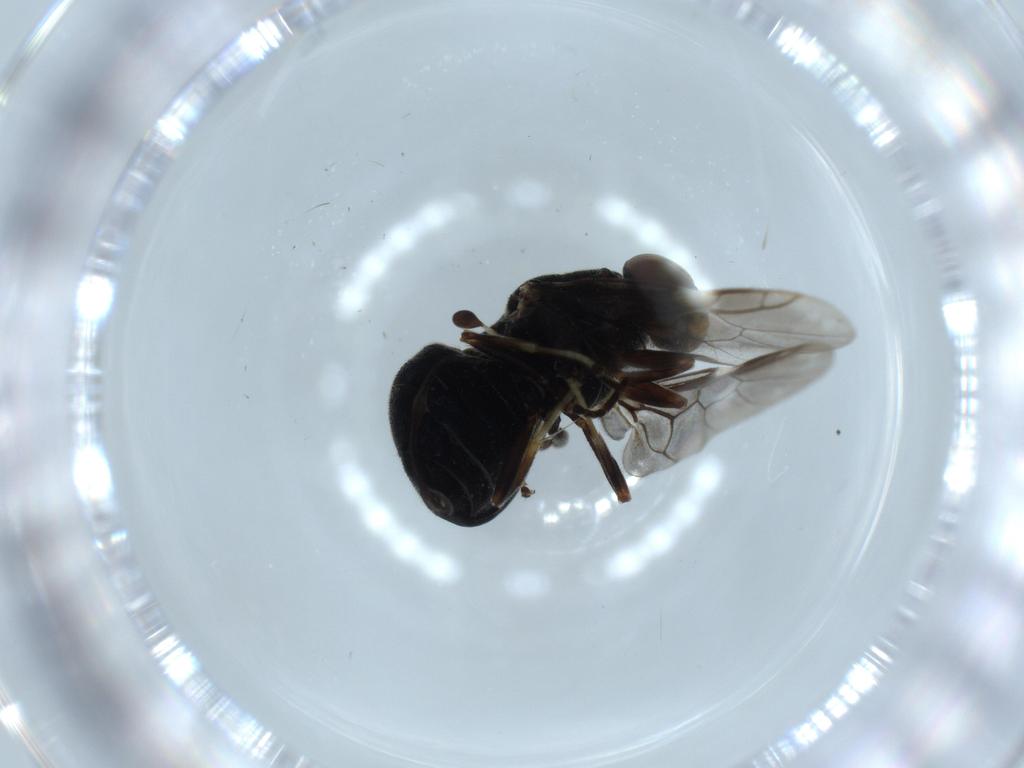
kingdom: Animalia
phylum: Arthropoda
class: Insecta
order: Diptera
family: Stratiomyidae
